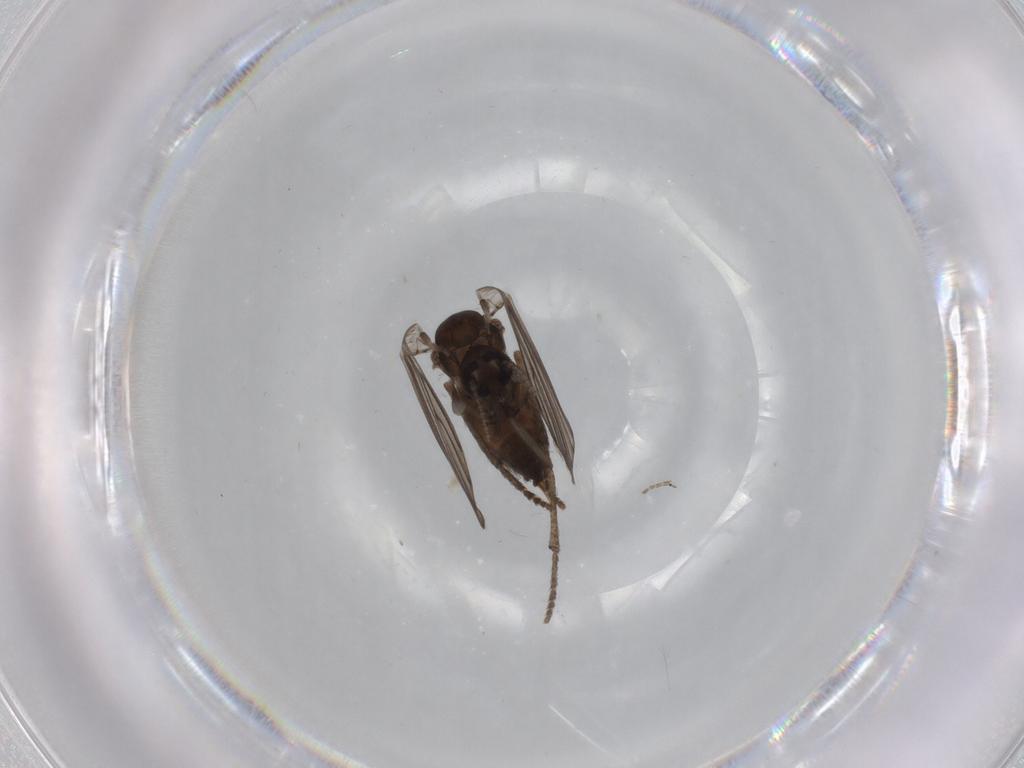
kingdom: Animalia
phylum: Arthropoda
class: Insecta
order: Diptera
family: Psychodidae
